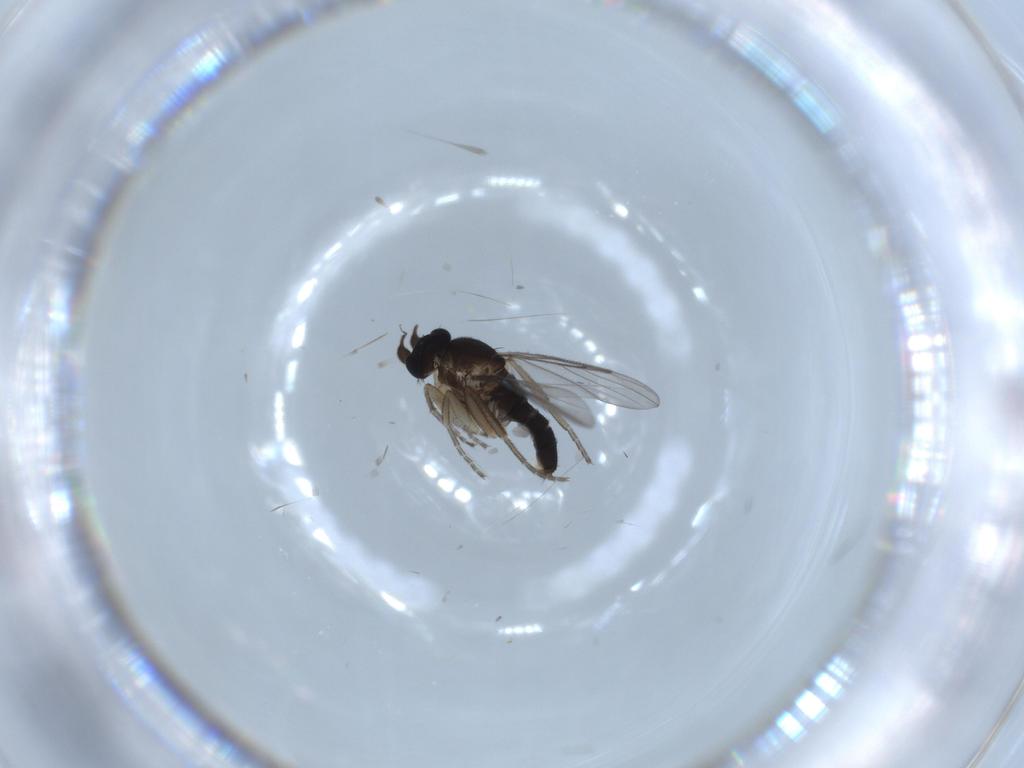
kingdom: Animalia
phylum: Arthropoda
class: Insecta
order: Diptera
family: Phoridae
